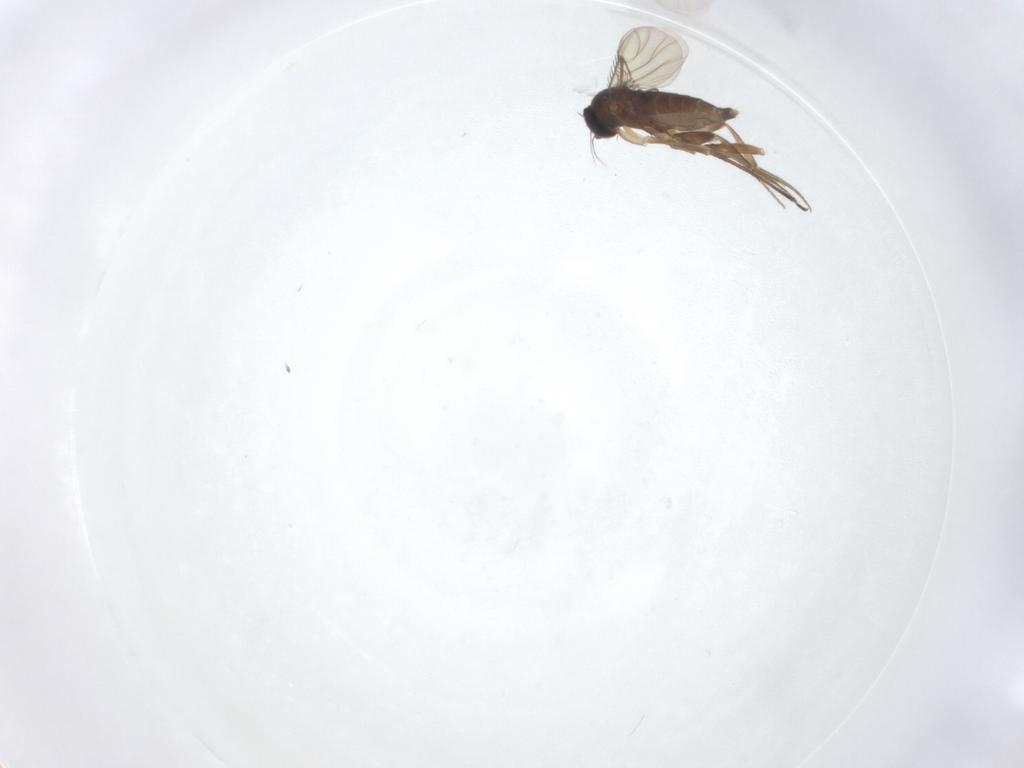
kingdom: Animalia
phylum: Arthropoda
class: Insecta
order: Diptera
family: Phoridae
